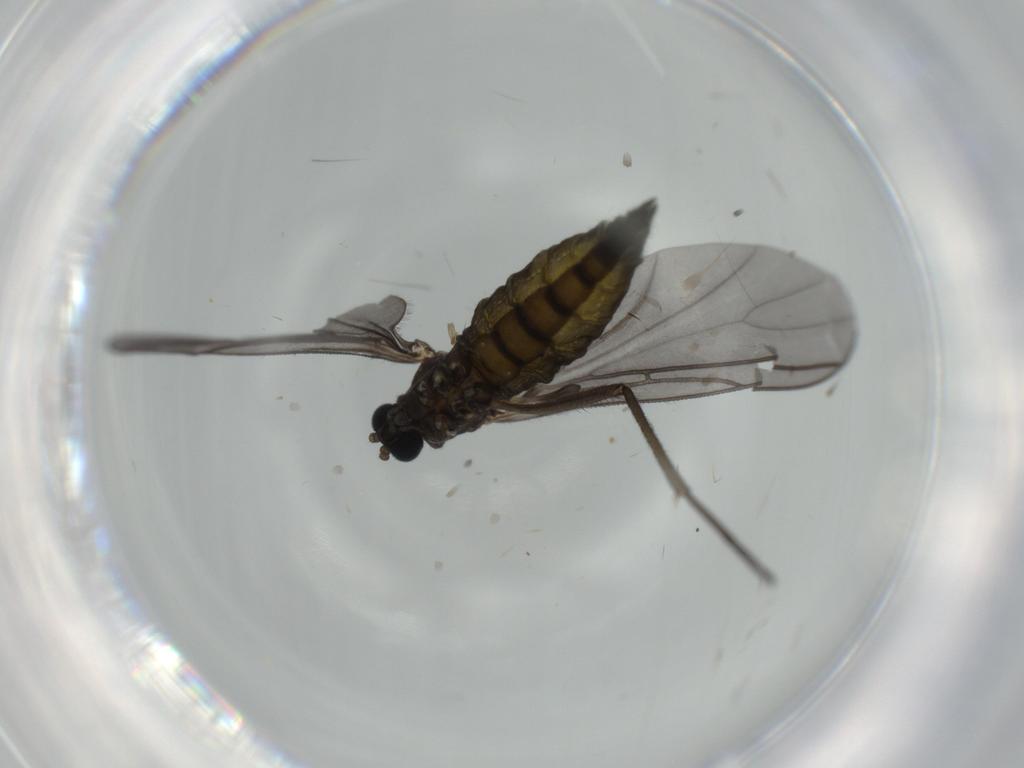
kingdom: Animalia
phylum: Arthropoda
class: Insecta
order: Diptera
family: Sciaridae
